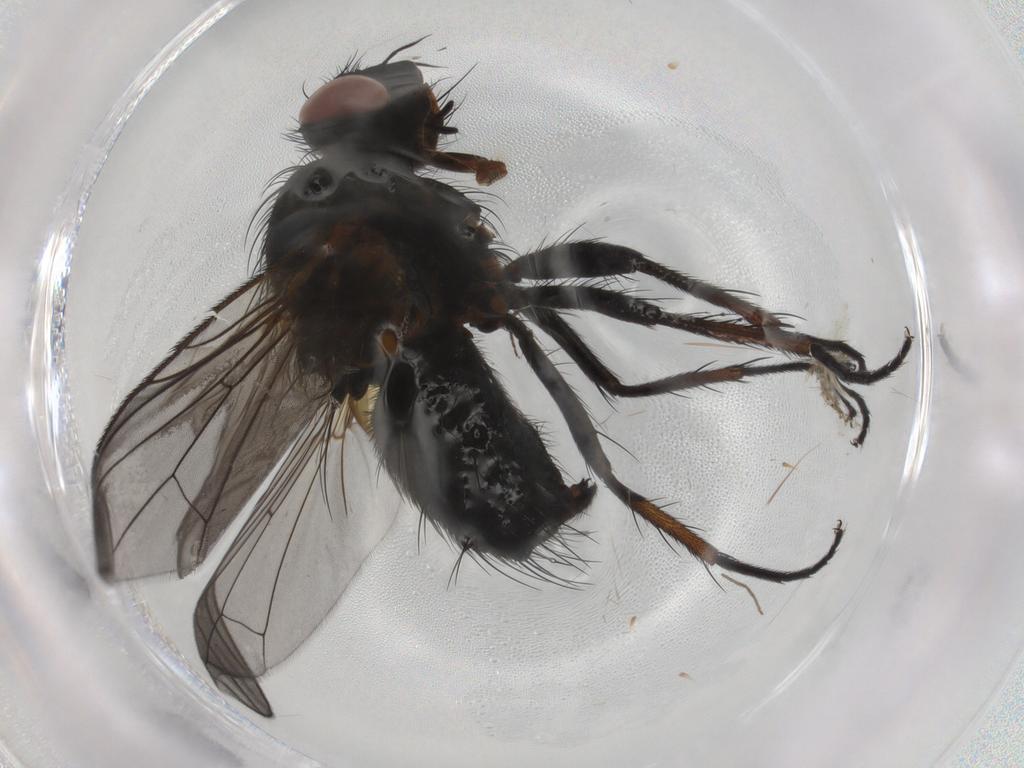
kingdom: Animalia
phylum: Arthropoda
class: Insecta
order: Diptera
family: Tachinidae
